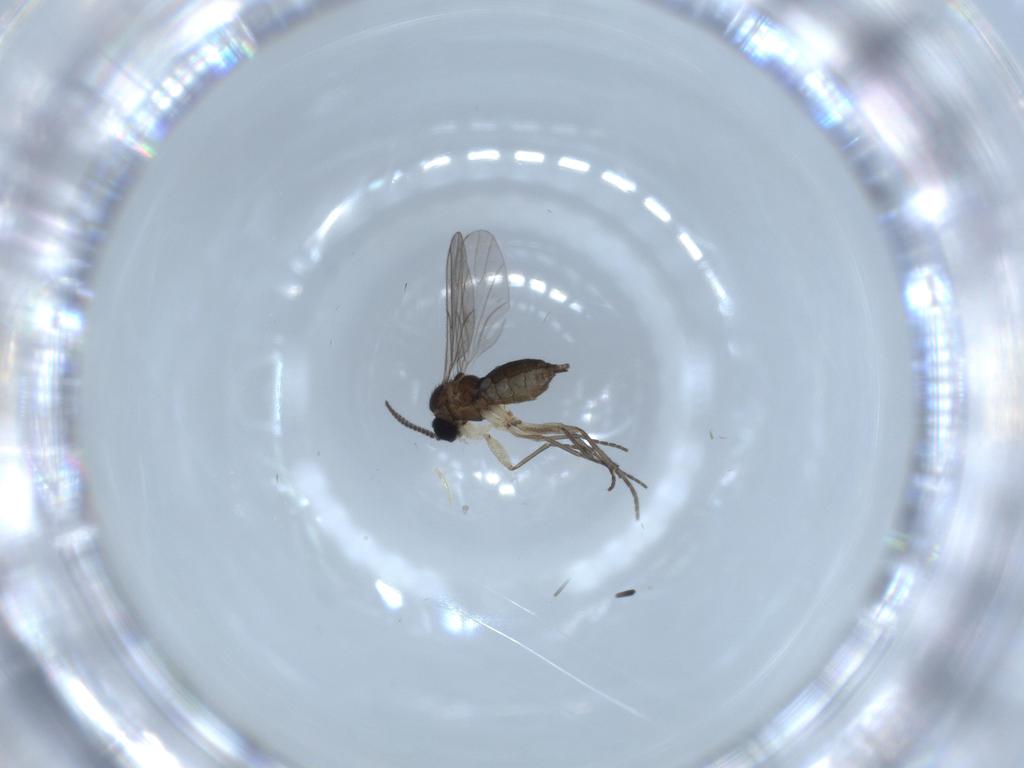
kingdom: Animalia
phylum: Arthropoda
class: Insecta
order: Diptera
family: Sciaridae
